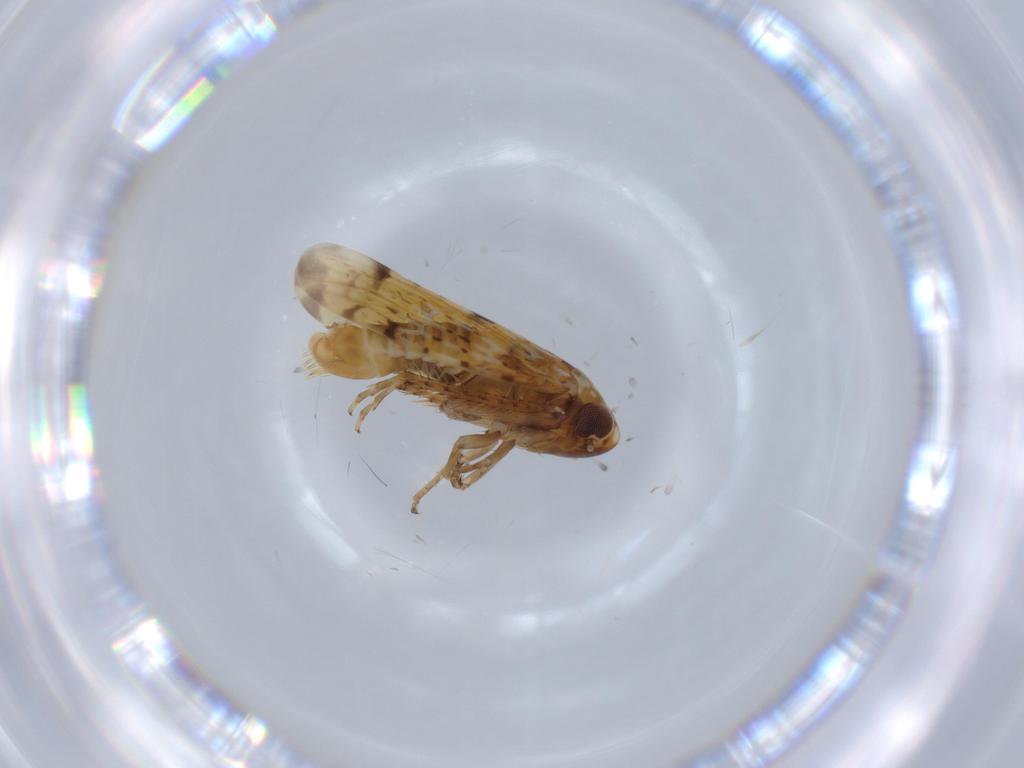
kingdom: Animalia
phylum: Arthropoda
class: Insecta
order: Hemiptera
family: Cicadellidae
